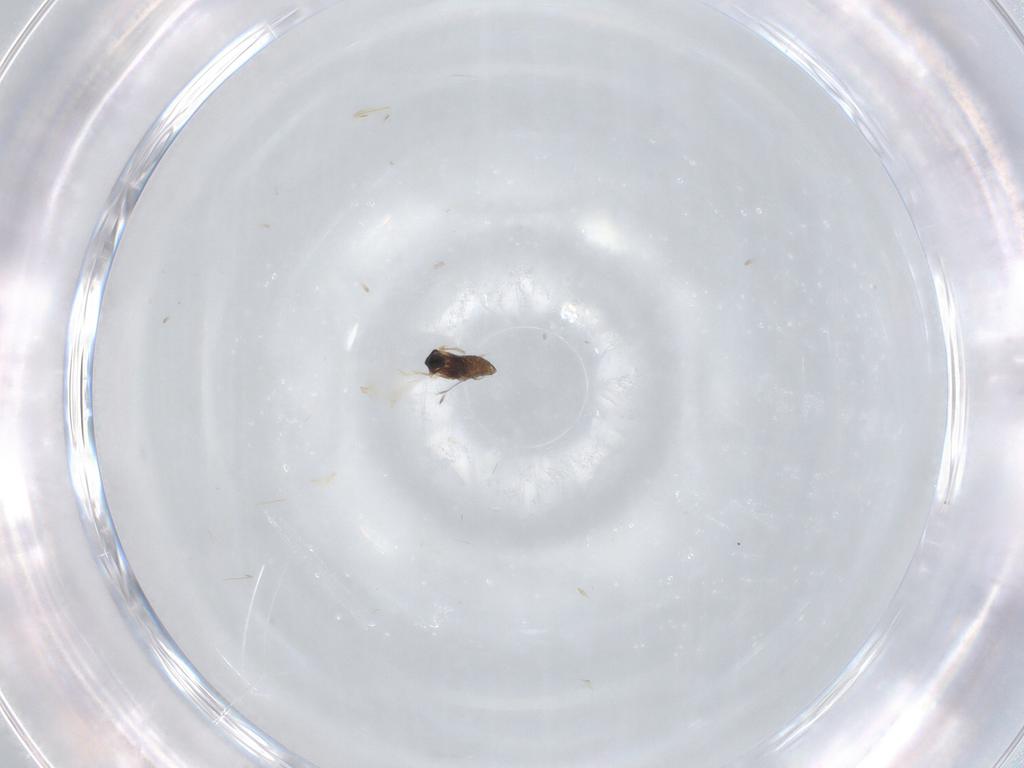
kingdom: Animalia
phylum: Arthropoda
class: Insecta
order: Diptera
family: Cecidomyiidae
